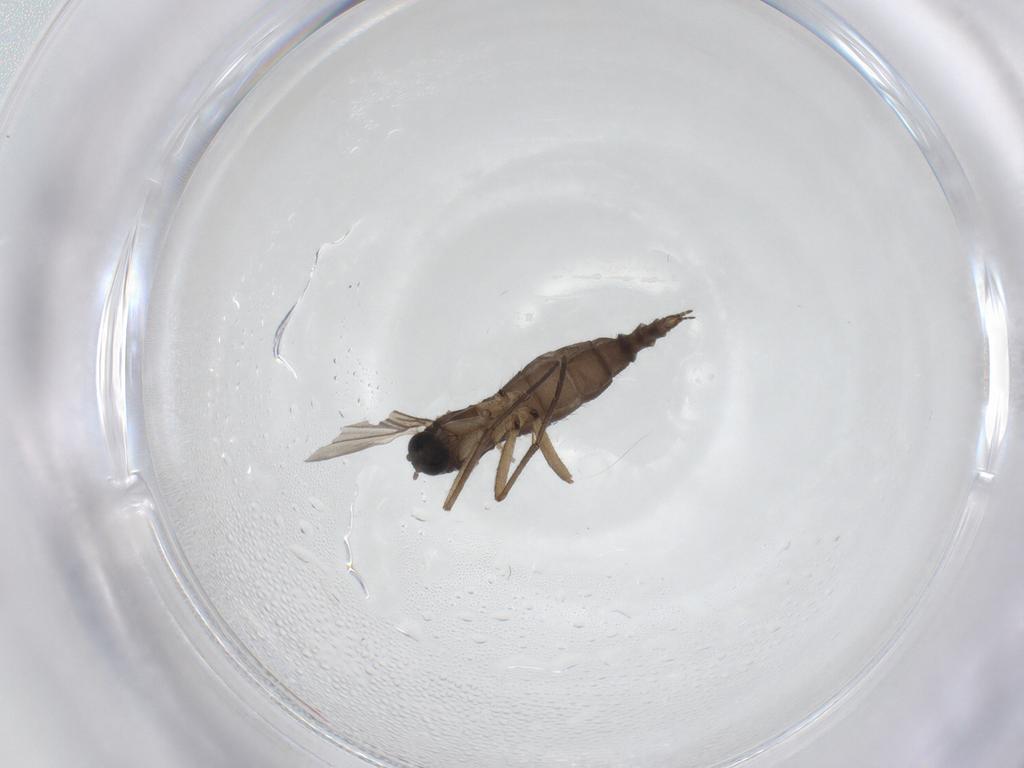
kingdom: Animalia
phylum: Arthropoda
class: Insecta
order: Diptera
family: Sciaridae
